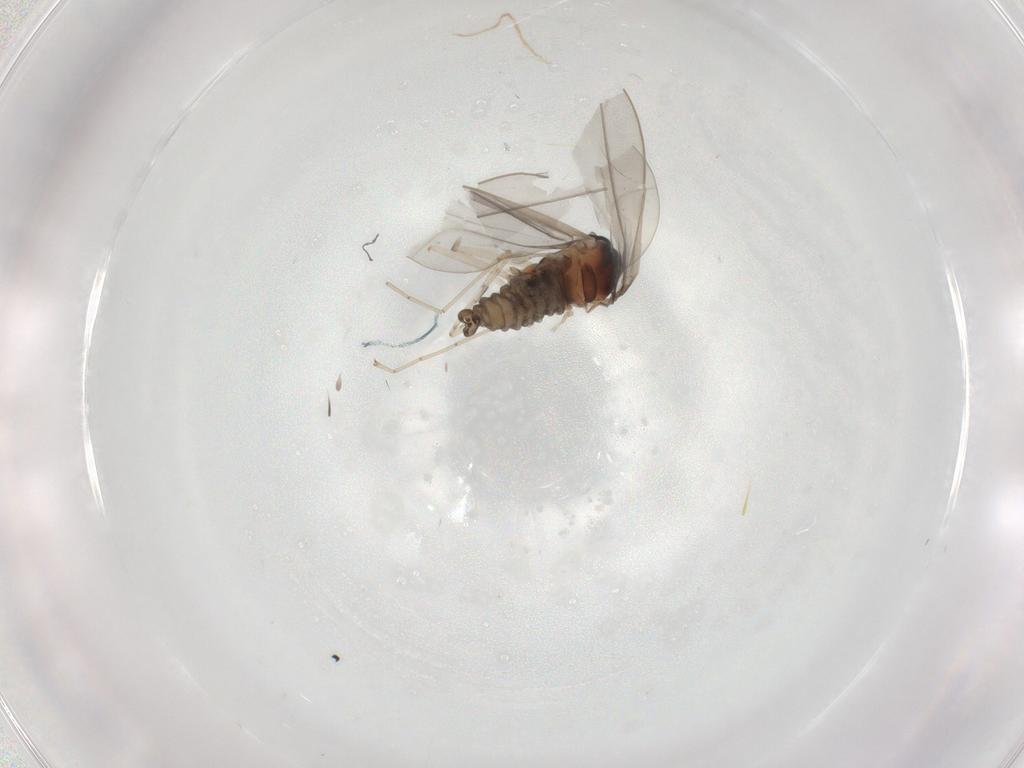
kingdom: Animalia
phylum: Arthropoda
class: Insecta
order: Diptera
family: Cecidomyiidae
